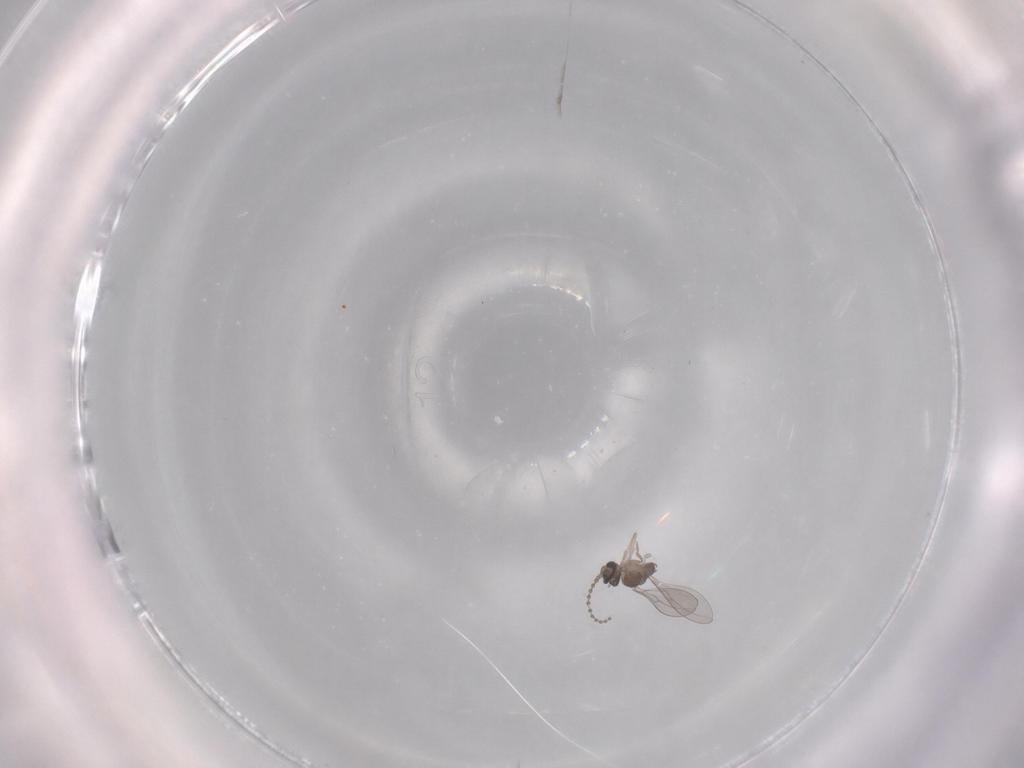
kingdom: Animalia
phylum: Arthropoda
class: Insecta
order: Diptera
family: Cecidomyiidae
